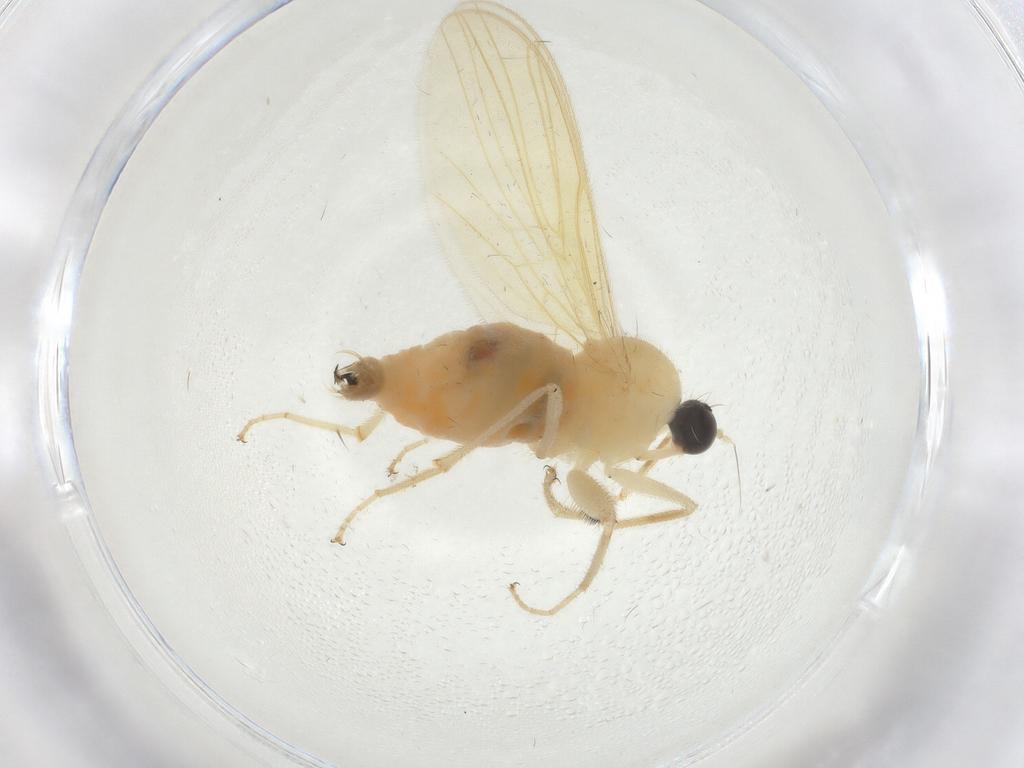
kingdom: Animalia
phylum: Arthropoda
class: Insecta
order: Diptera
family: Hybotidae
